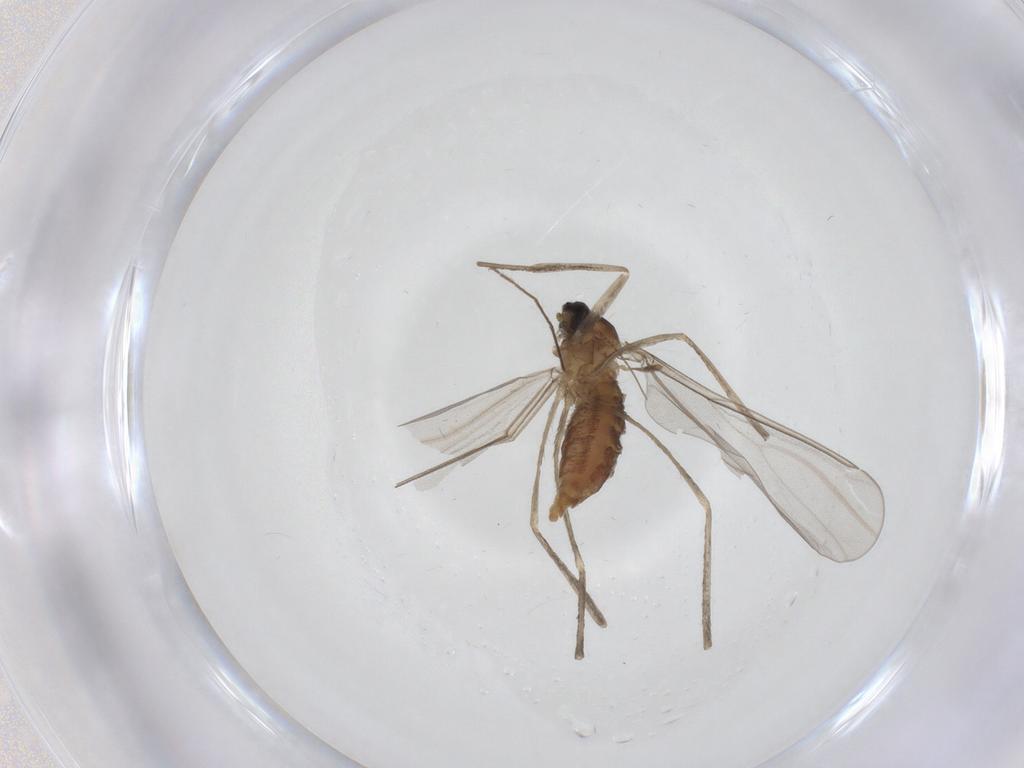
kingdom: Animalia
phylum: Arthropoda
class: Insecta
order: Diptera
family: Cecidomyiidae
